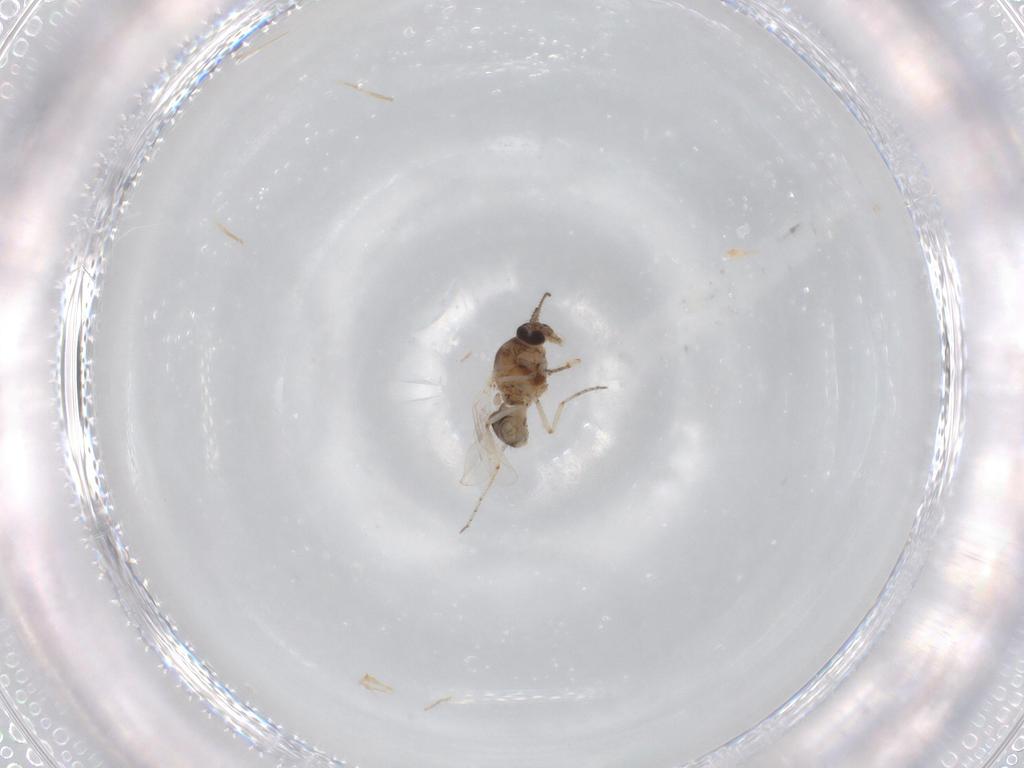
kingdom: Animalia
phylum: Arthropoda
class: Insecta
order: Diptera
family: Ceratopogonidae
